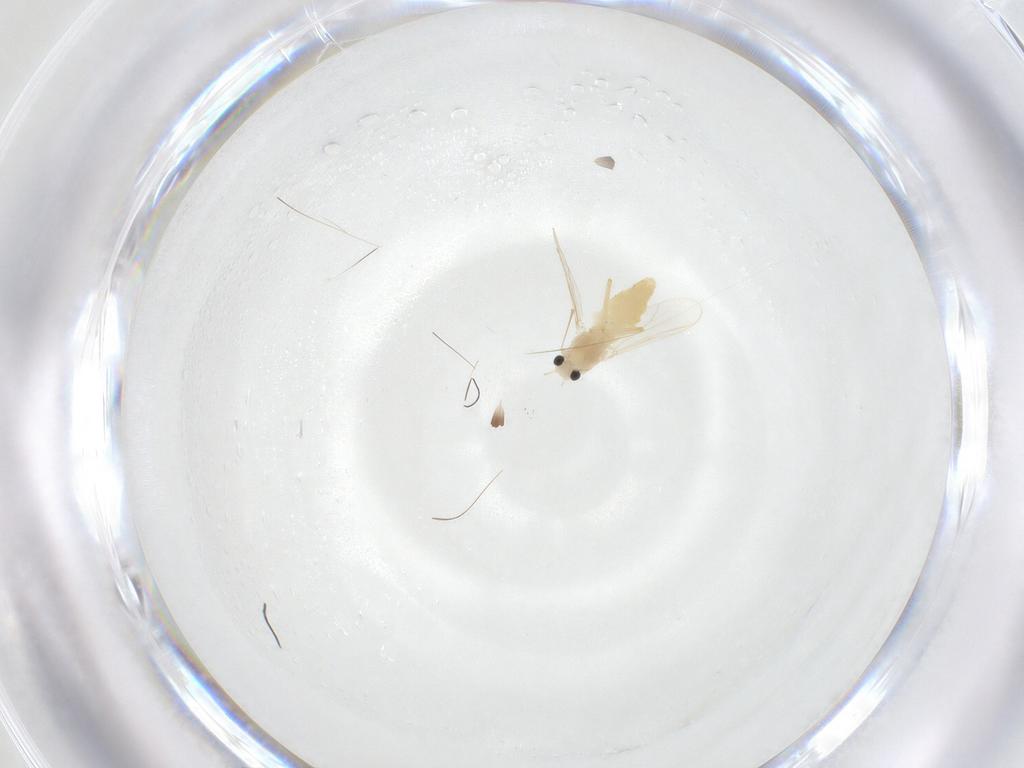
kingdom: Animalia
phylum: Arthropoda
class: Insecta
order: Diptera
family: Chironomidae
